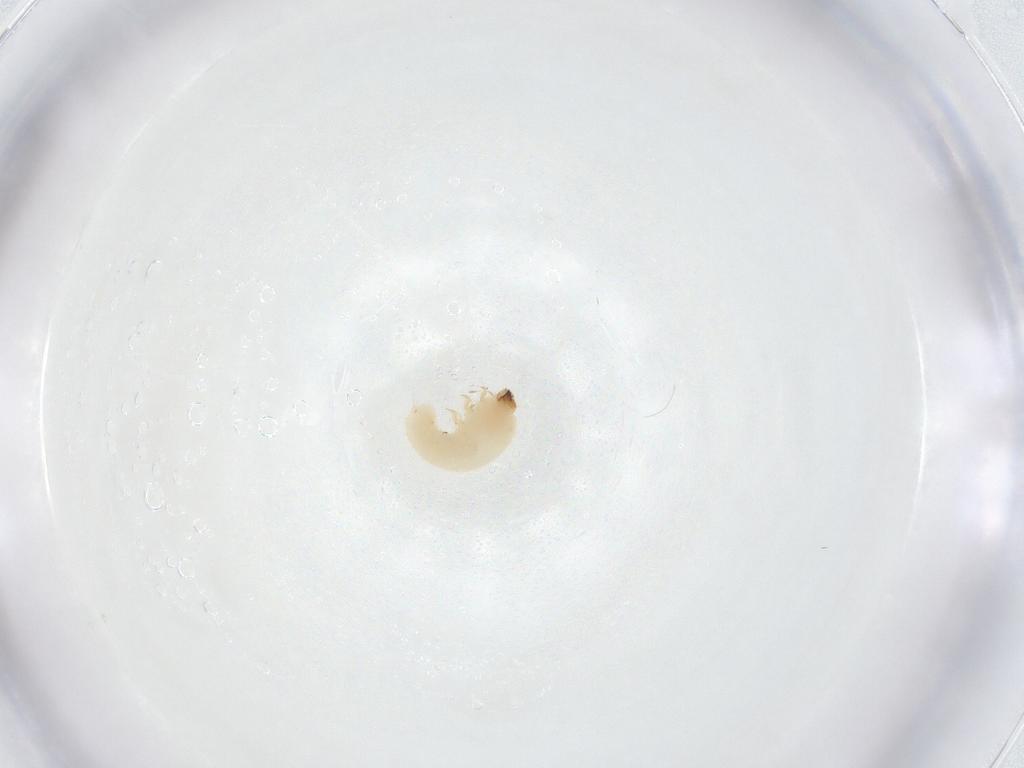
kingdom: Animalia
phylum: Arthropoda
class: Insecta
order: Coleoptera
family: Bostrichidae
